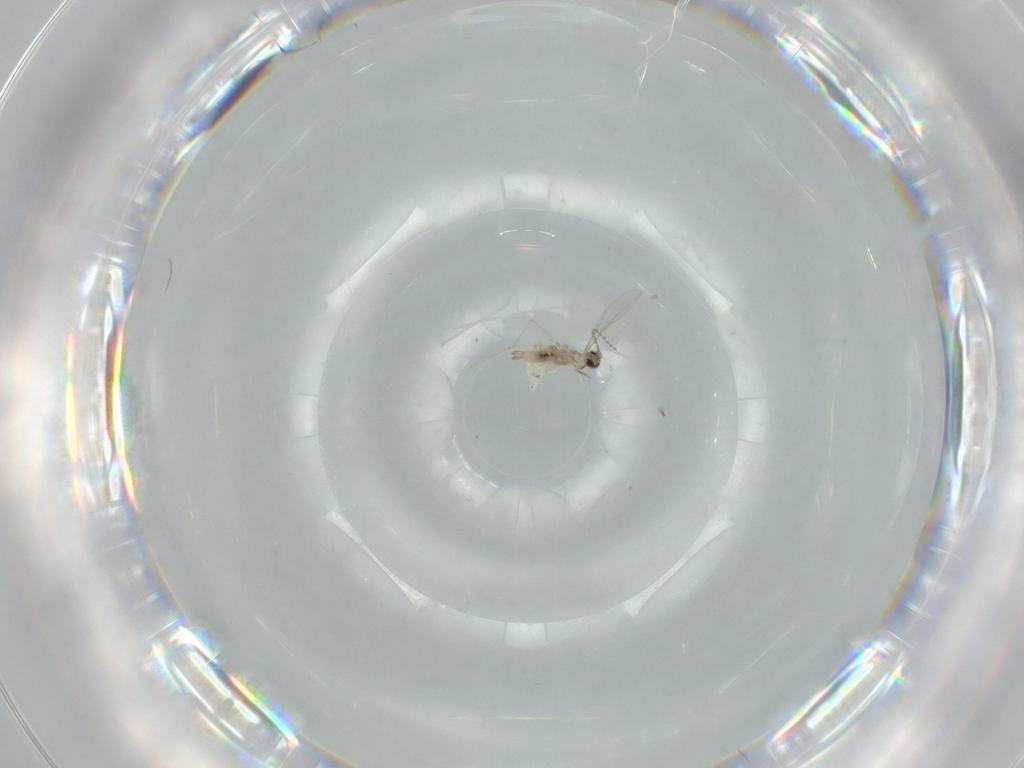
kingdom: Animalia
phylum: Arthropoda
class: Insecta
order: Diptera
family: Cecidomyiidae
